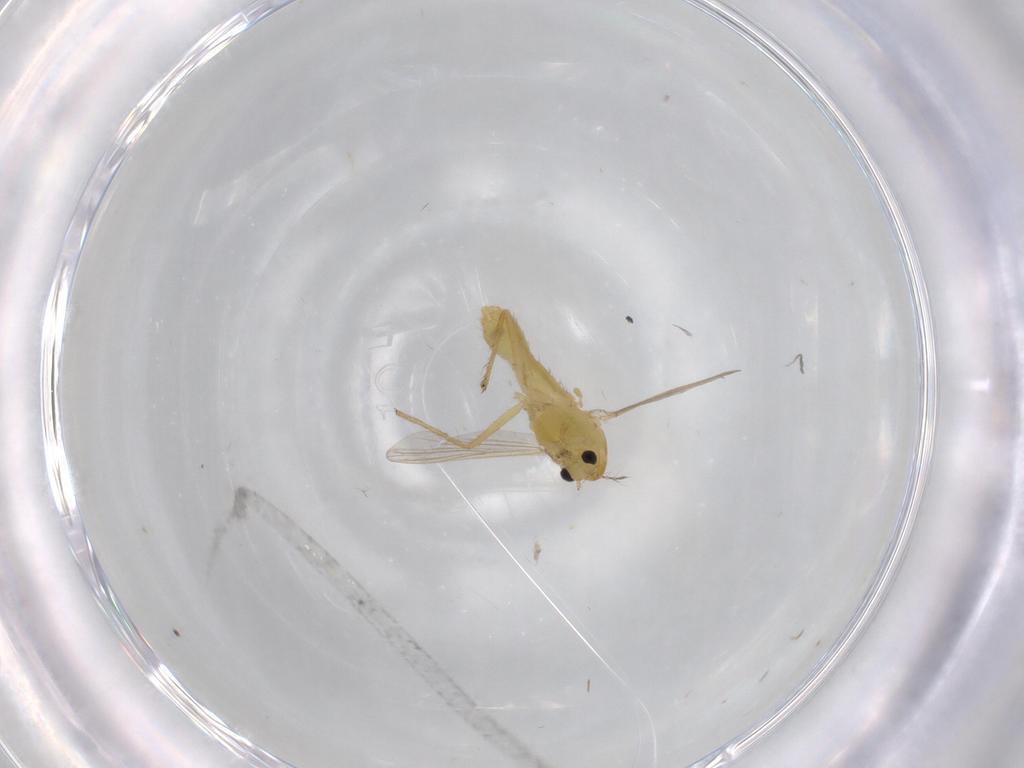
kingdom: Animalia
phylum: Arthropoda
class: Insecta
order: Diptera
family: Chironomidae
